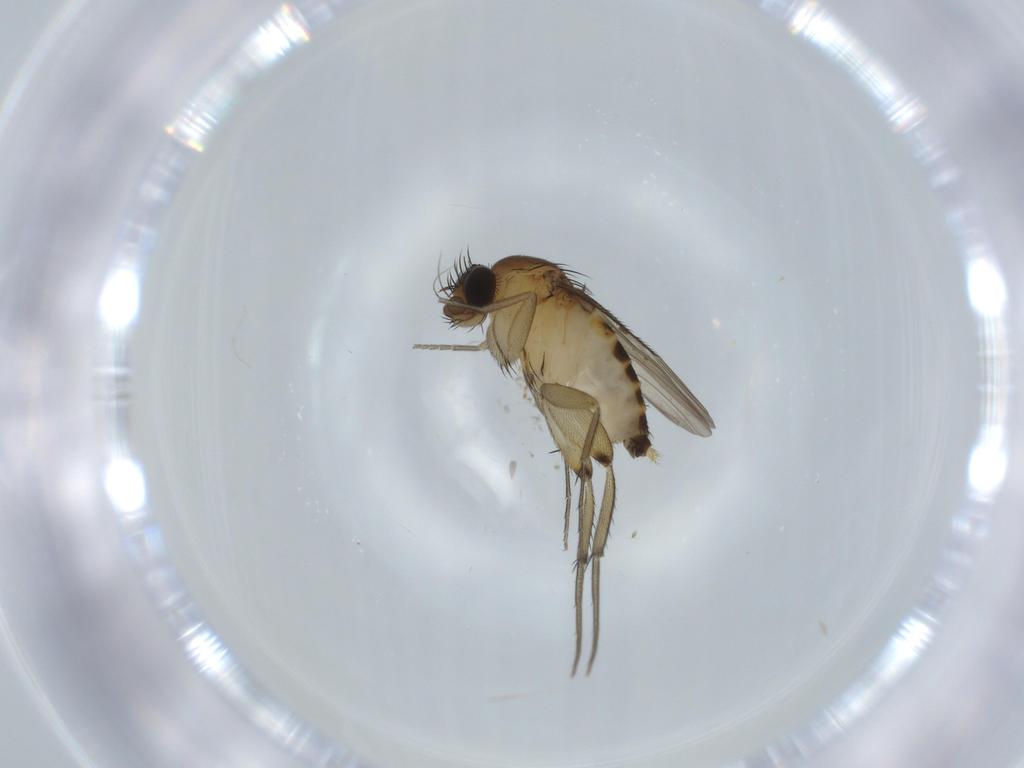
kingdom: Animalia
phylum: Arthropoda
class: Insecta
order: Diptera
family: Phoridae
